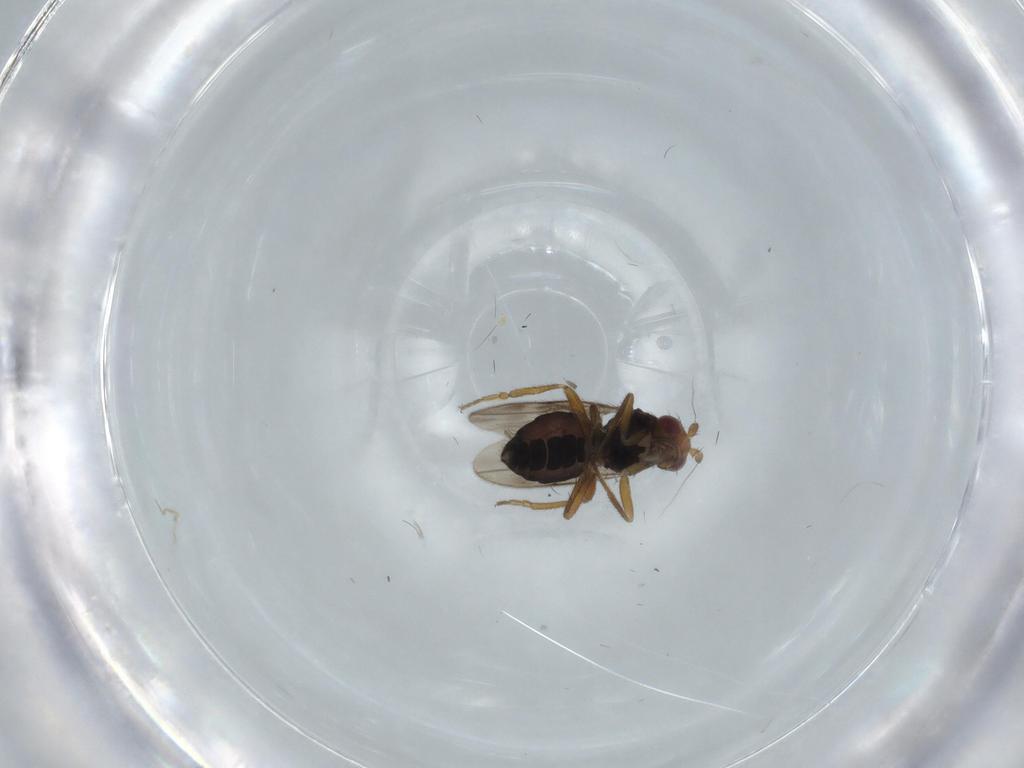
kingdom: Animalia
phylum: Arthropoda
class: Insecta
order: Diptera
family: Sphaeroceridae
